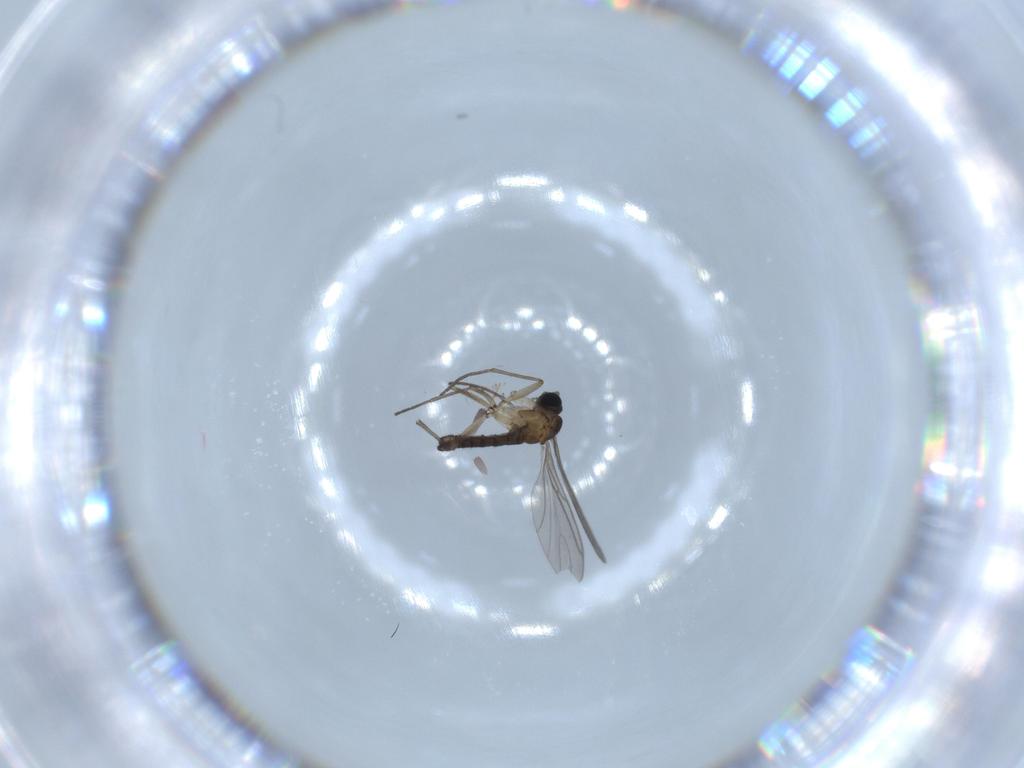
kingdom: Animalia
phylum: Arthropoda
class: Insecta
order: Diptera
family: Sciaridae
